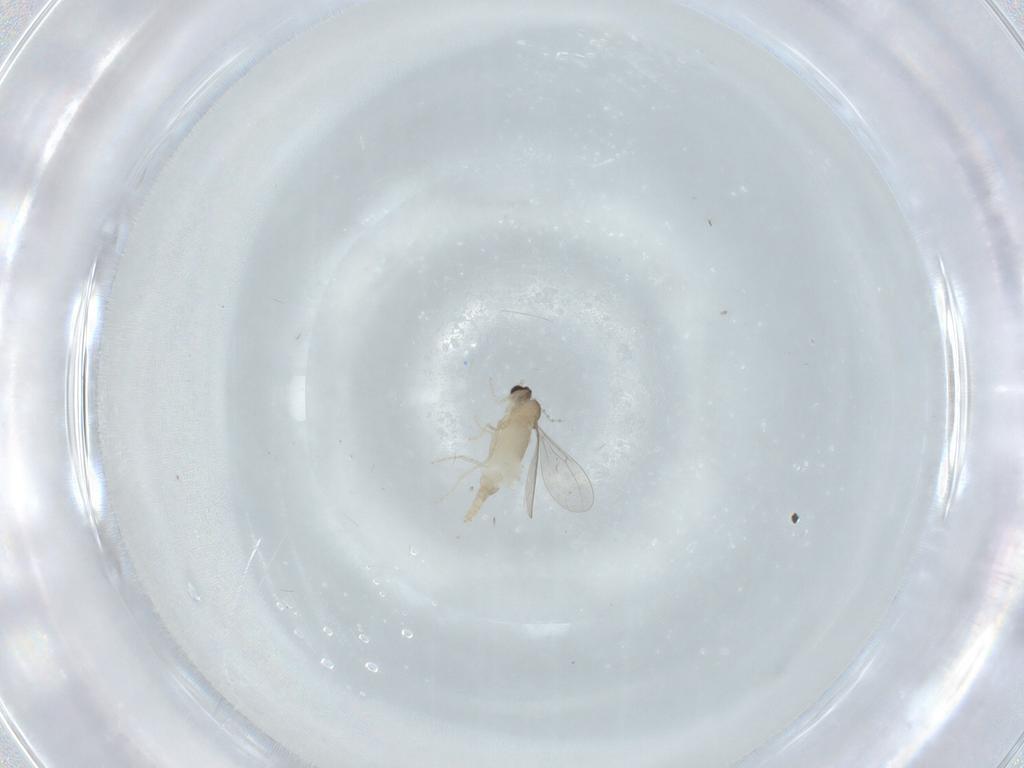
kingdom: Animalia
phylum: Arthropoda
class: Insecta
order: Diptera
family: Cecidomyiidae
